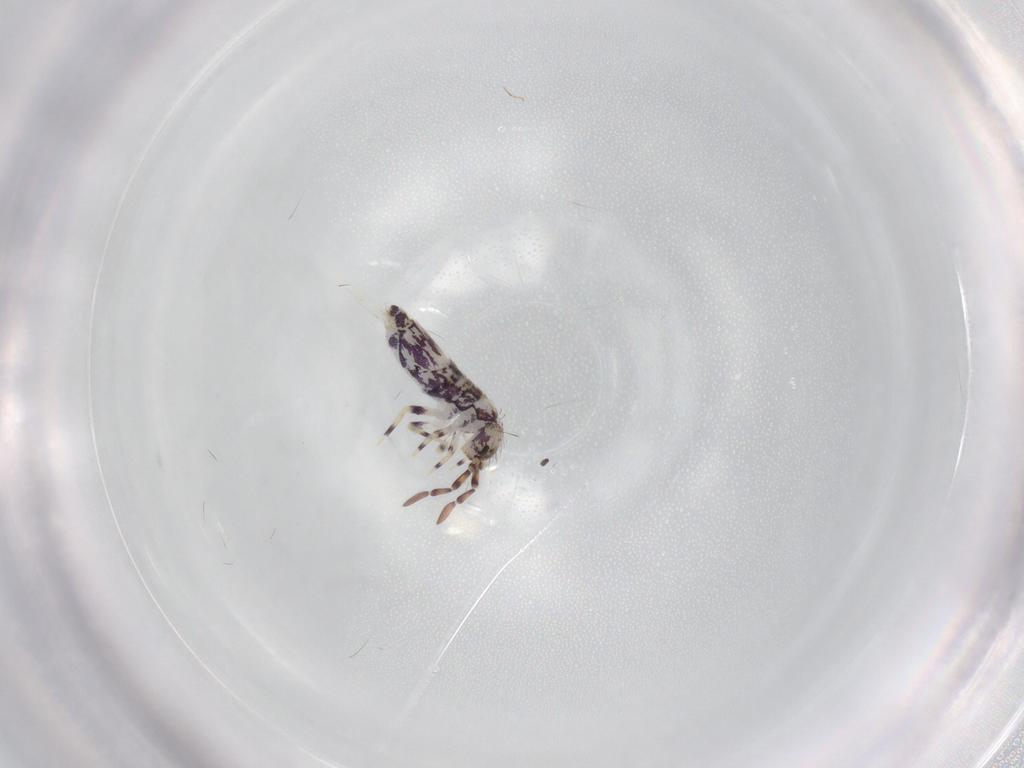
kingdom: Animalia
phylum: Arthropoda
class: Collembola
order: Entomobryomorpha
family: Entomobryidae
